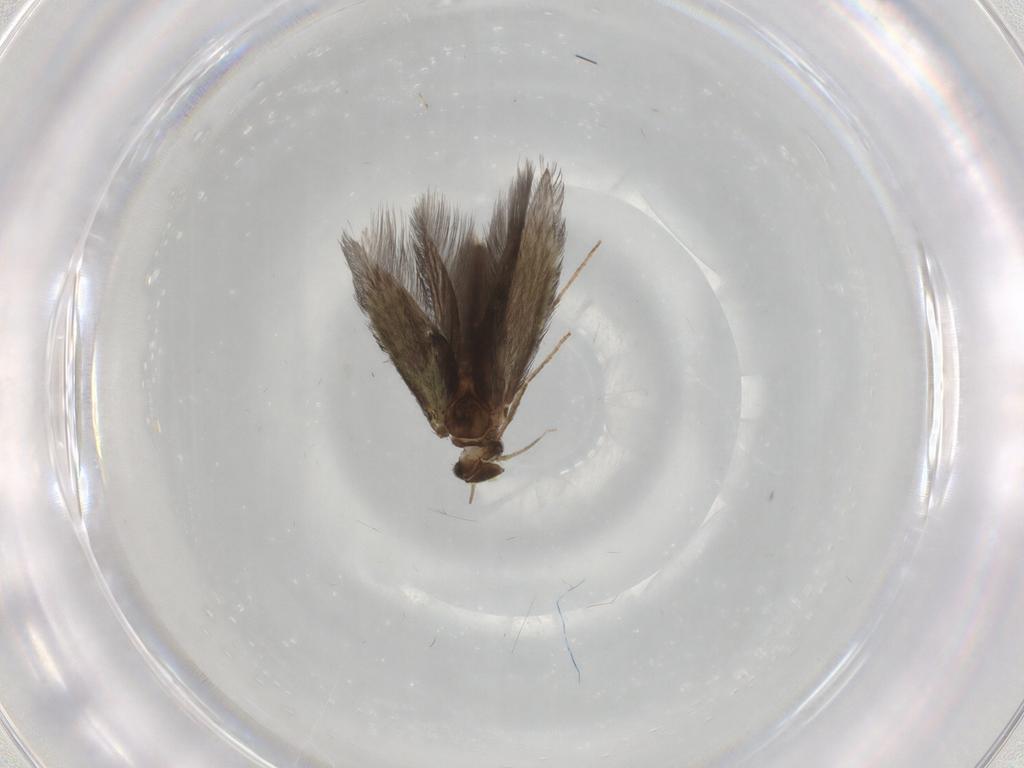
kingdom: Animalia
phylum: Arthropoda
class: Insecta
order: Trichoptera
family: Hydroptilidae
